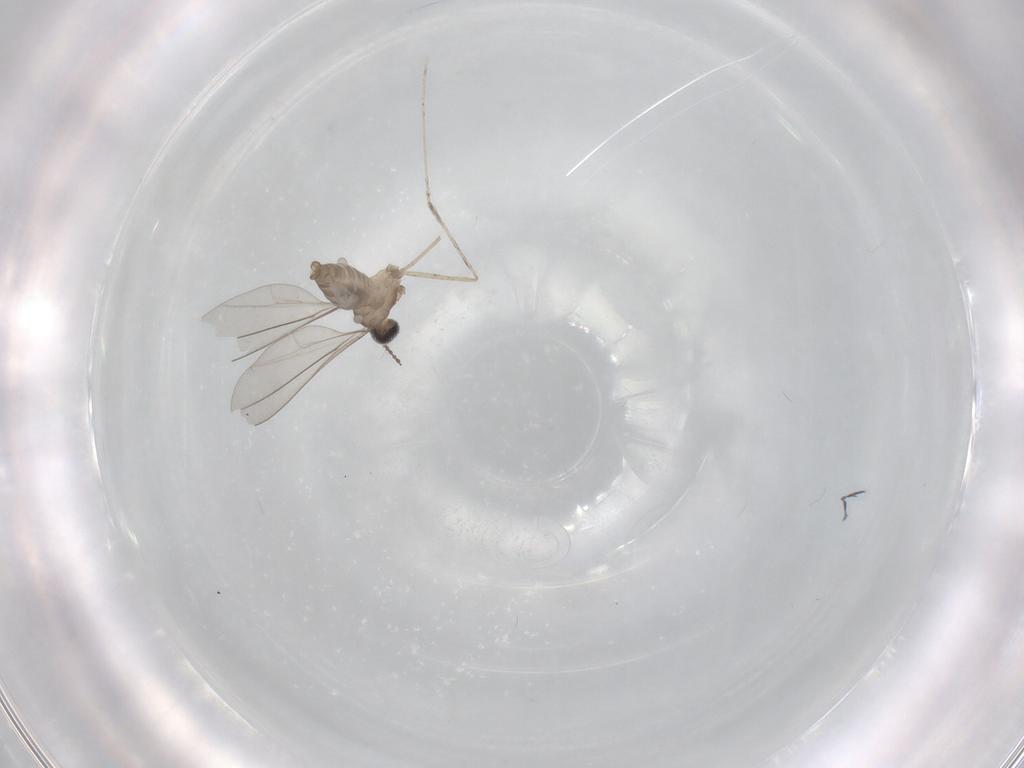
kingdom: Animalia
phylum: Arthropoda
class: Insecta
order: Diptera
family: Cecidomyiidae
